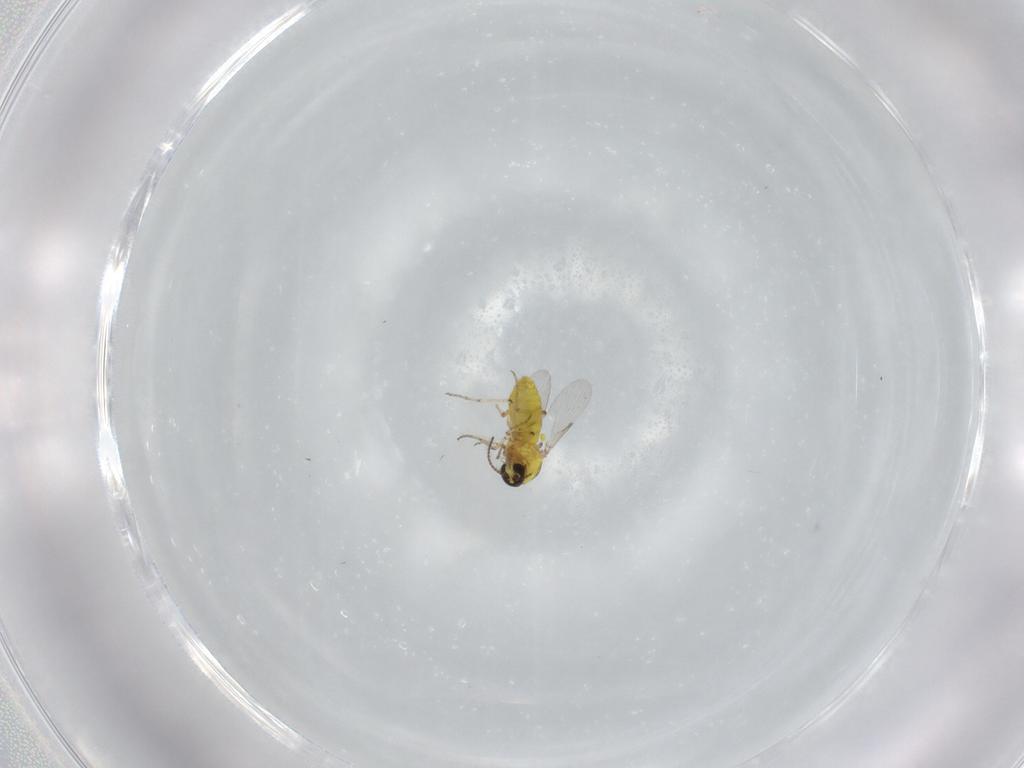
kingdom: Animalia
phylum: Arthropoda
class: Insecta
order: Diptera
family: Ceratopogonidae
